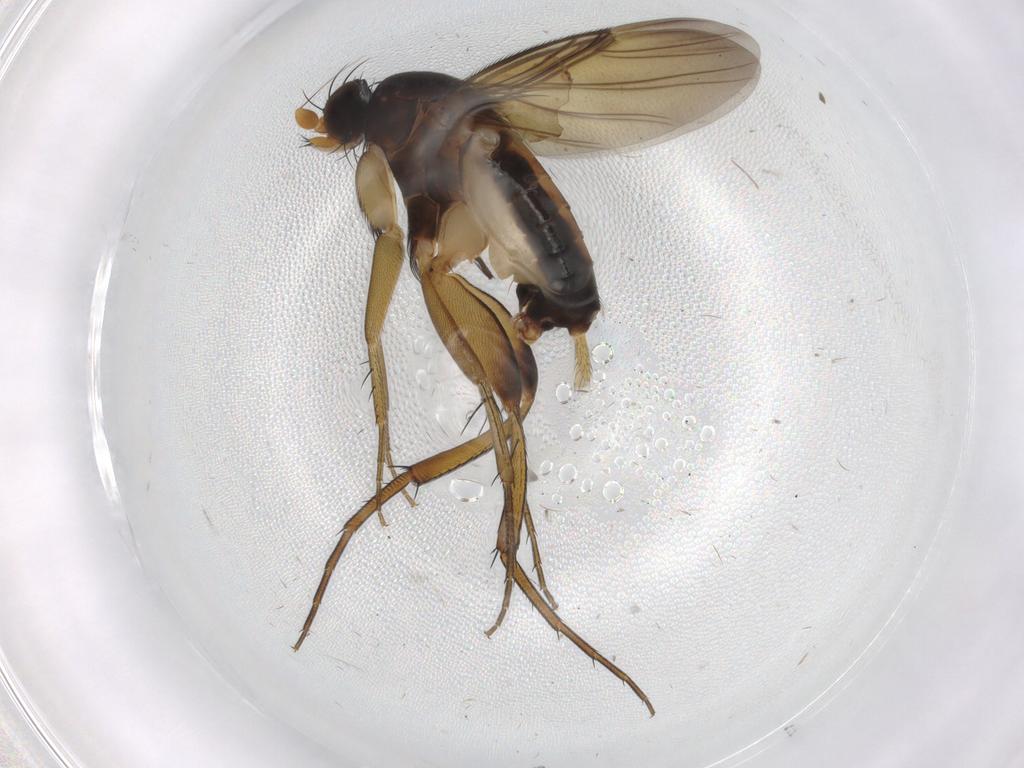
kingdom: Animalia
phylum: Arthropoda
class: Insecta
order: Diptera
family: Phoridae
